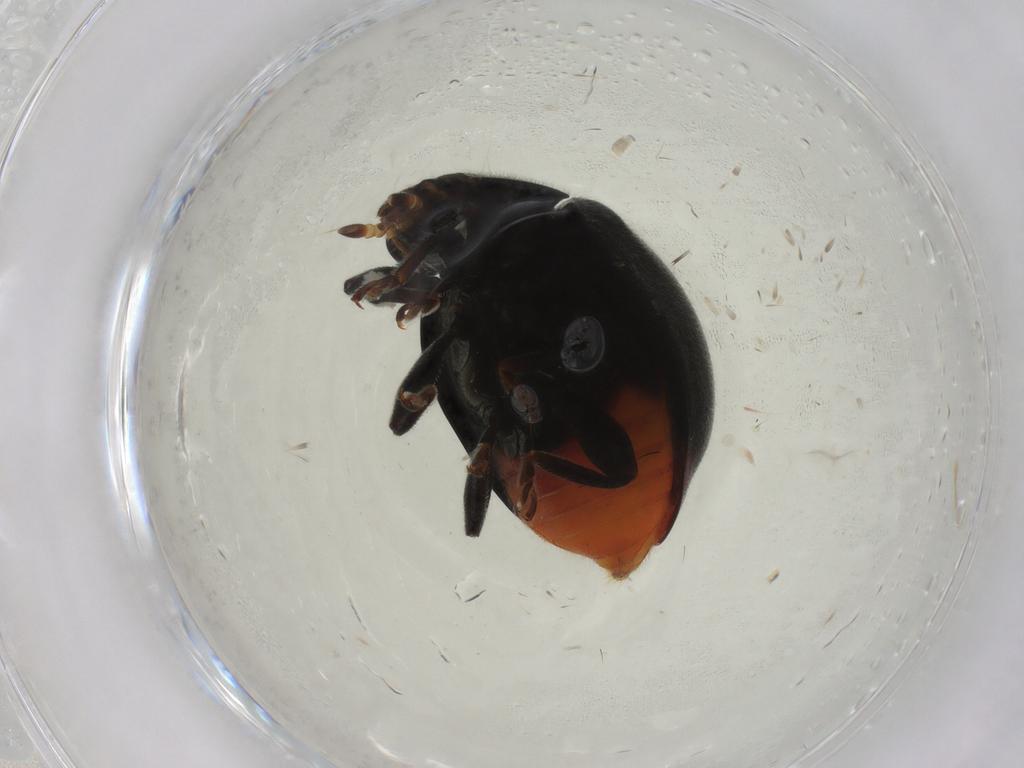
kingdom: Animalia
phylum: Arthropoda
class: Insecta
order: Coleoptera
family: Coccinellidae
